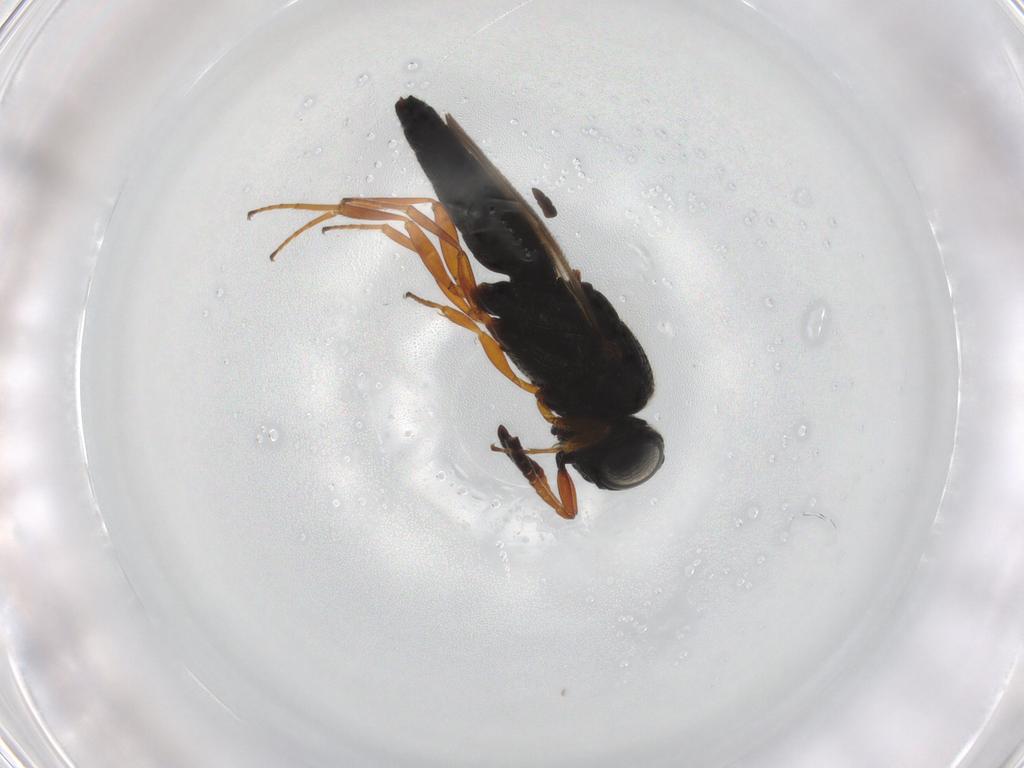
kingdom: Animalia
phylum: Arthropoda
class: Insecta
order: Hymenoptera
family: Scelionidae
